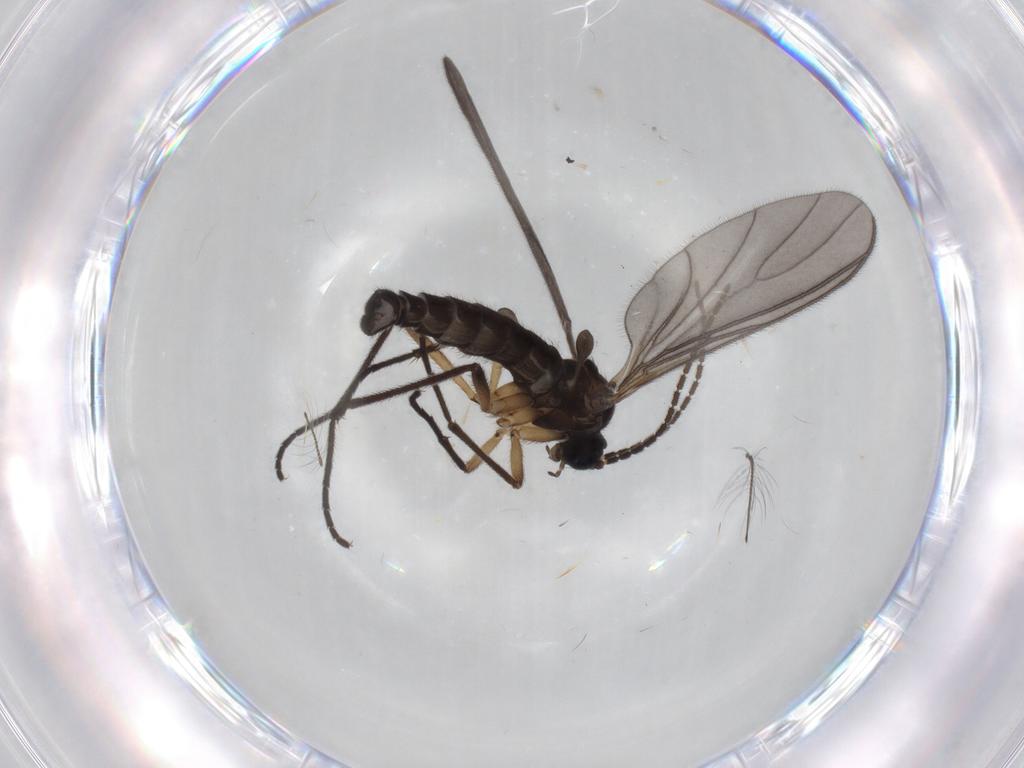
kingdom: Animalia
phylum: Arthropoda
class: Insecta
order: Diptera
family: Sciaridae
